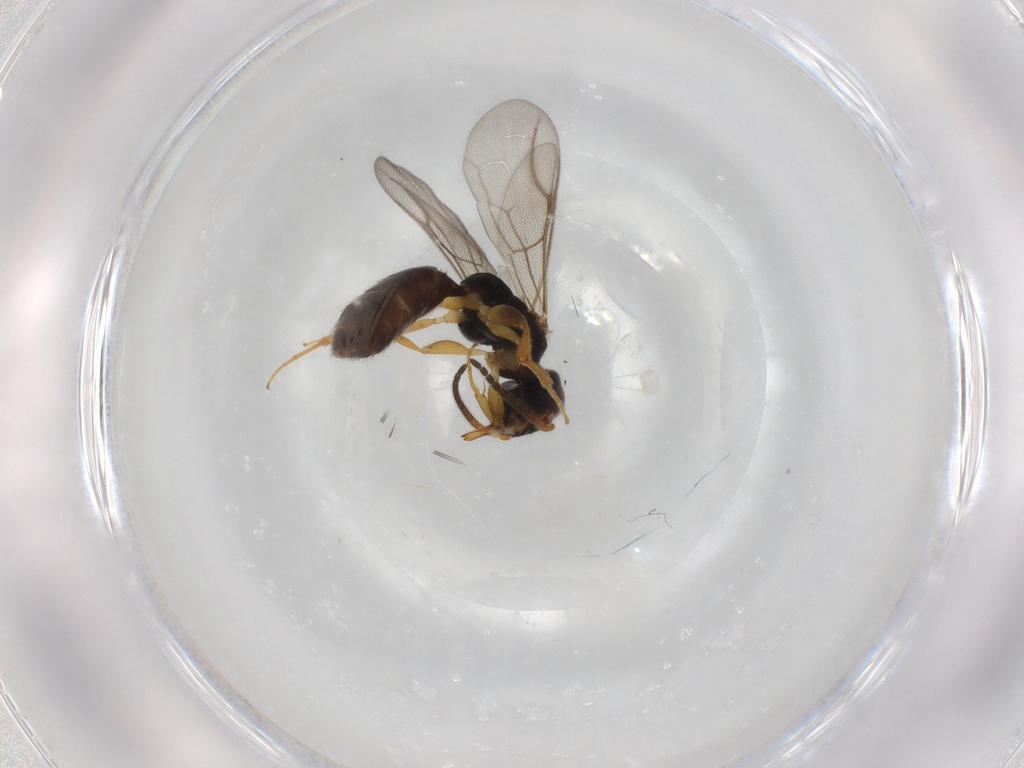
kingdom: Animalia
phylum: Arthropoda
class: Insecta
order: Hymenoptera
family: Bethylidae
